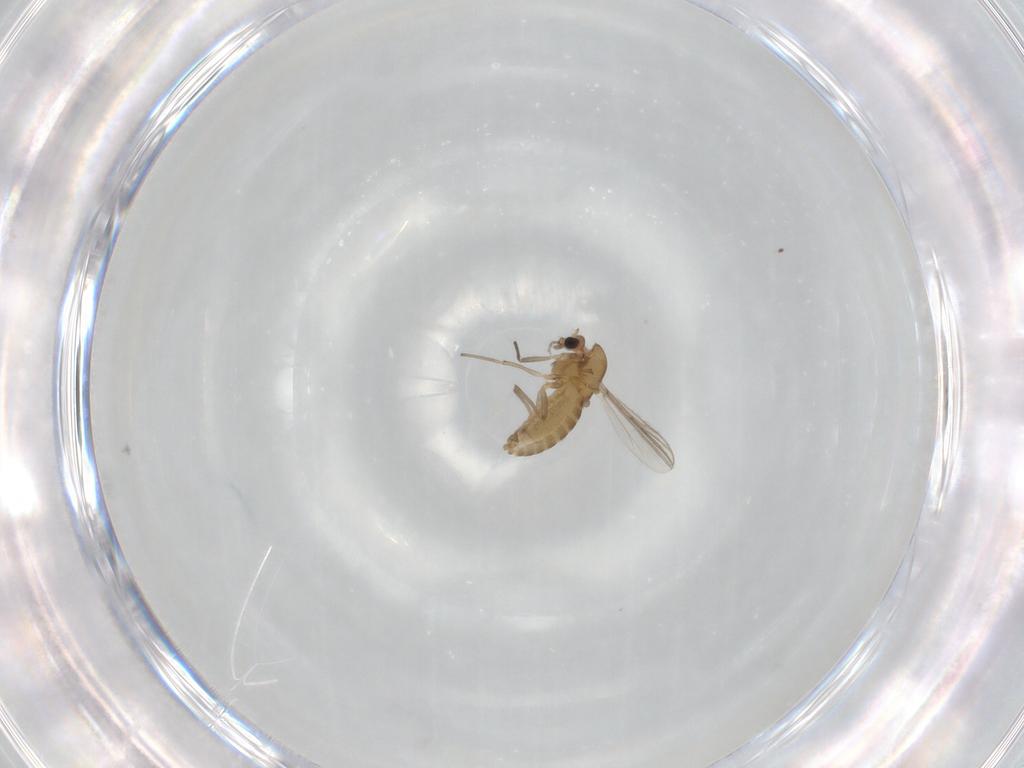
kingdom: Animalia
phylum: Arthropoda
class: Insecta
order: Diptera
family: Chironomidae
